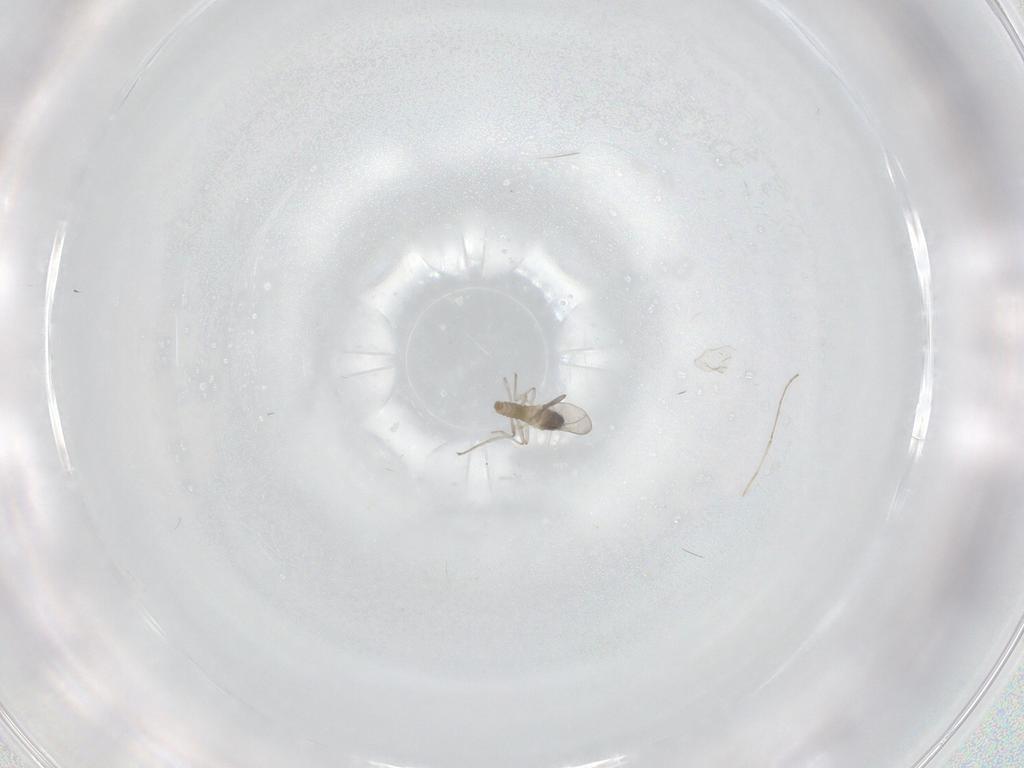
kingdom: Animalia
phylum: Arthropoda
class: Insecta
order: Diptera
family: Cecidomyiidae
